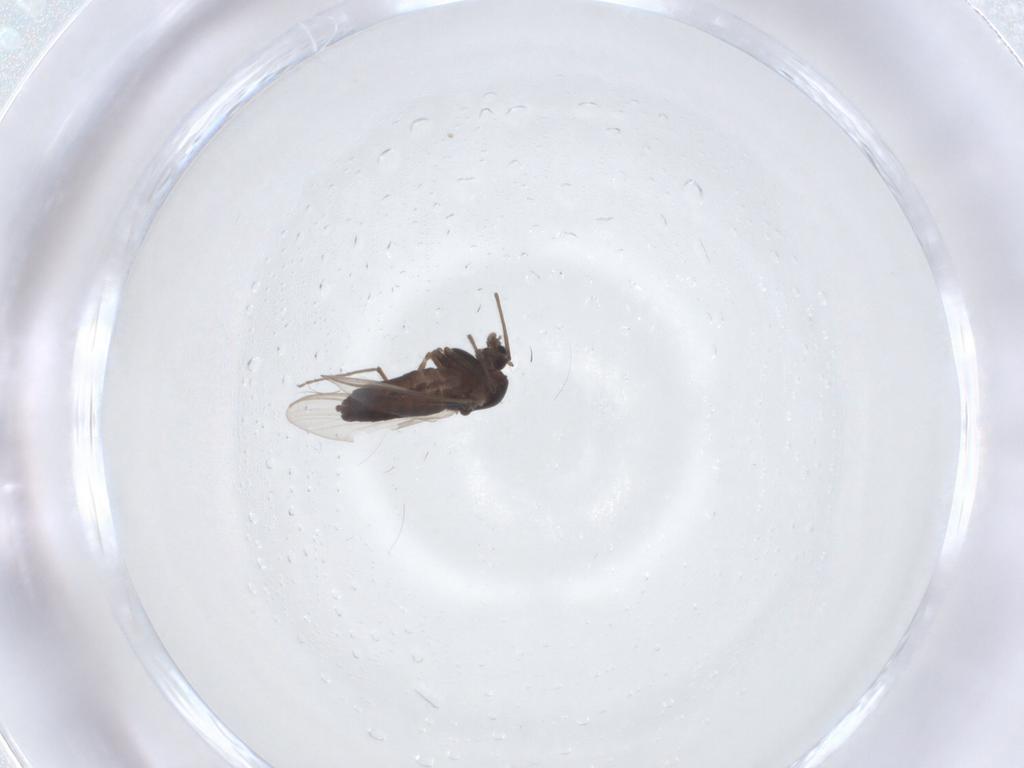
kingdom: Animalia
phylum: Arthropoda
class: Insecta
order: Diptera
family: Chironomidae
